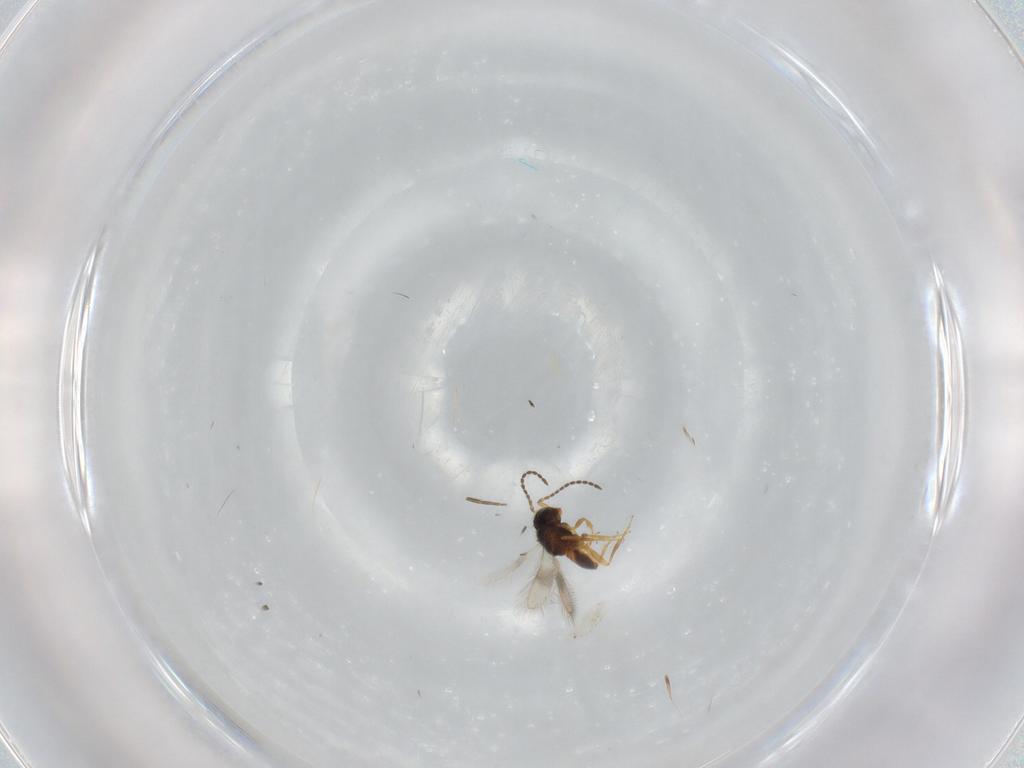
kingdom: Animalia
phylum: Arthropoda
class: Insecta
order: Hymenoptera
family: Scelionidae
